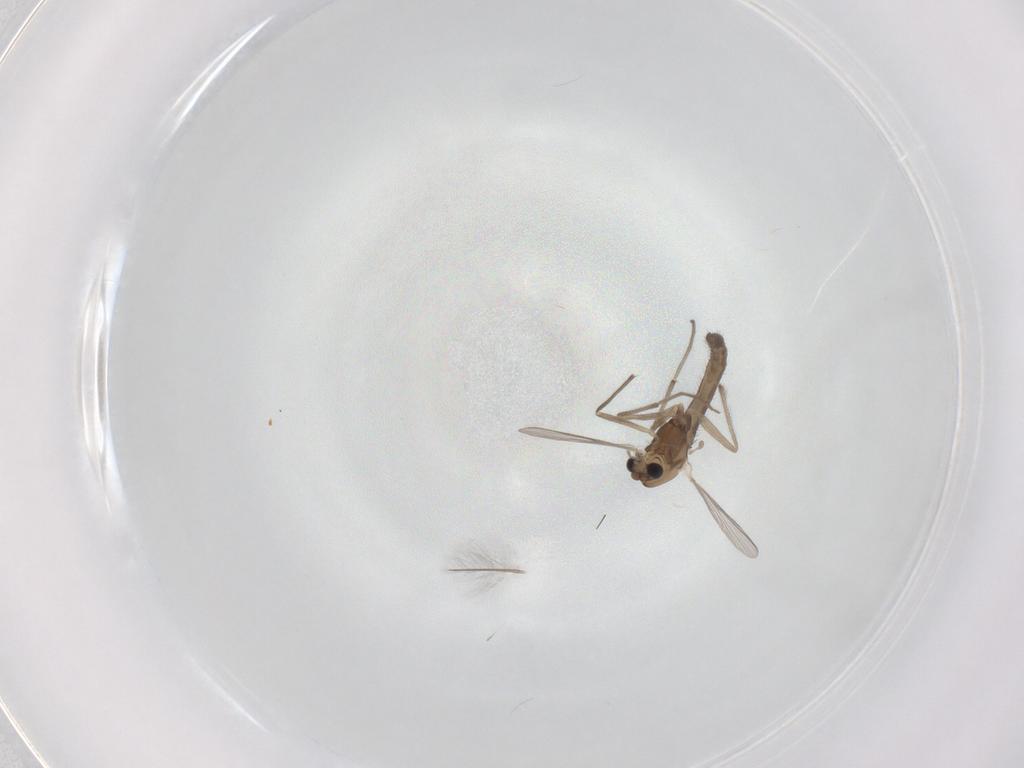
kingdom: Animalia
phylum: Arthropoda
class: Insecta
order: Diptera
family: Chironomidae
